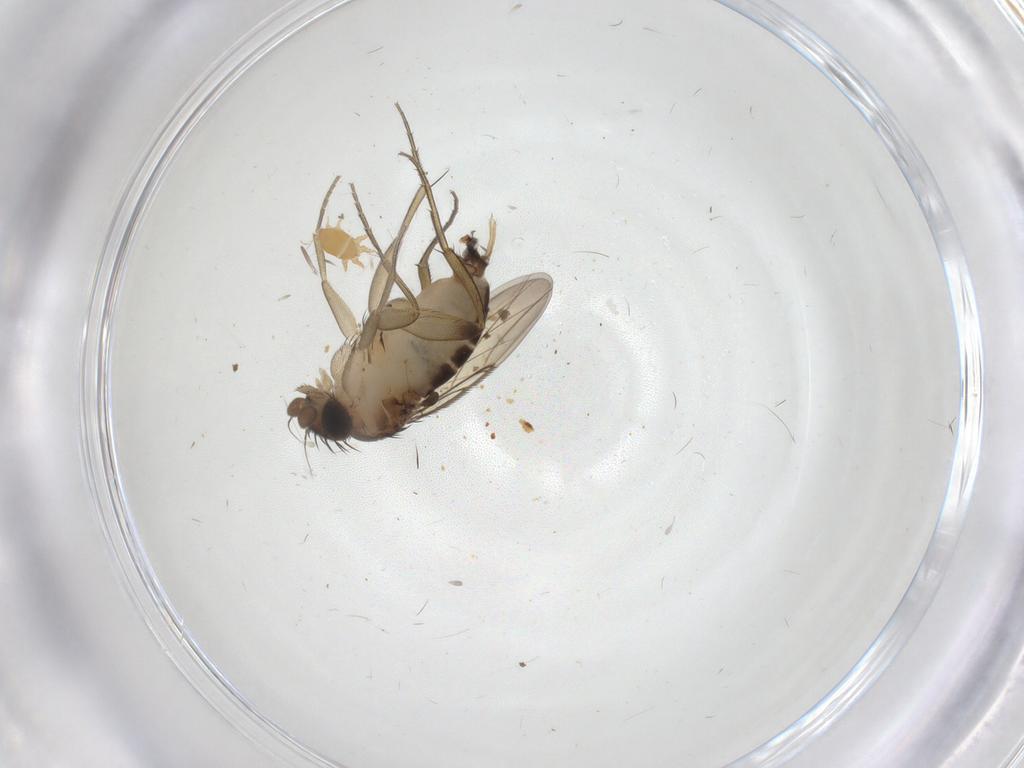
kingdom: Animalia
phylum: Arthropoda
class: Insecta
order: Diptera
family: Phoridae
